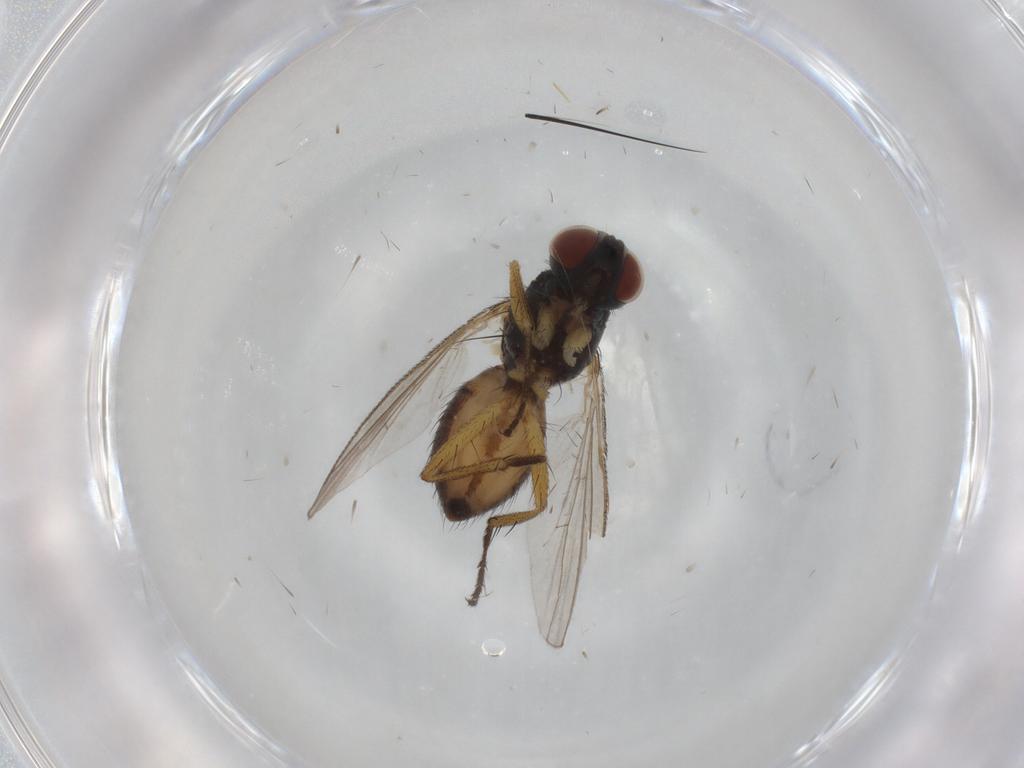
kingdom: Animalia
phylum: Arthropoda
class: Insecta
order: Diptera
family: Muscidae
